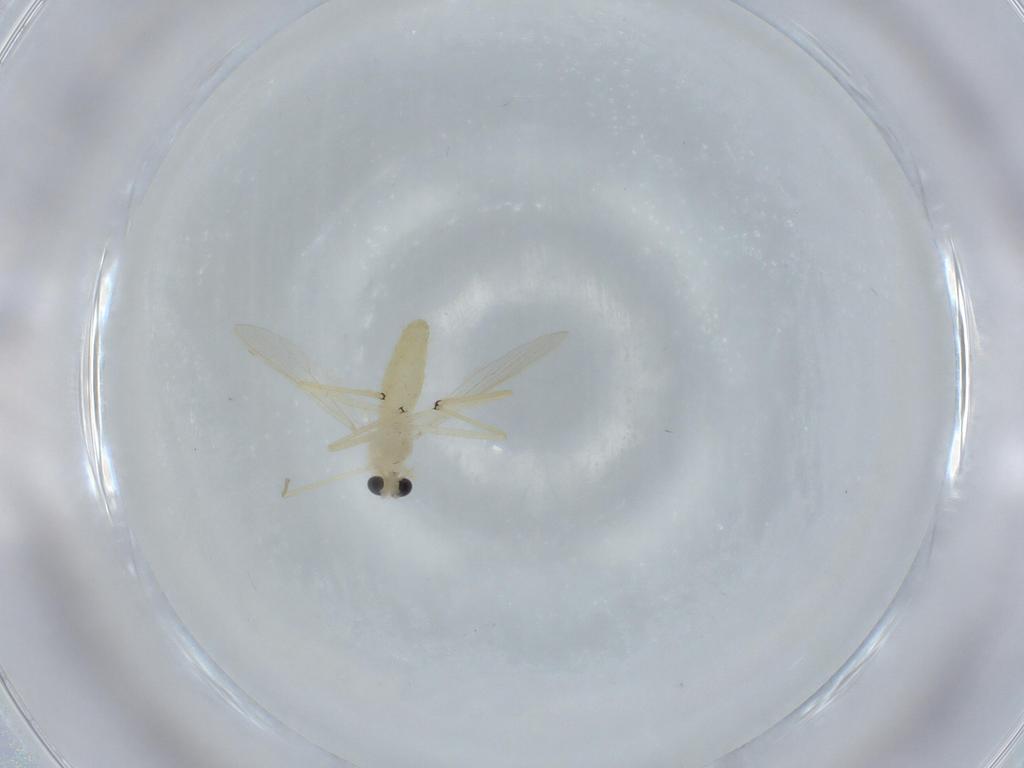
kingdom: Animalia
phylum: Arthropoda
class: Insecta
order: Diptera
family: Chironomidae
